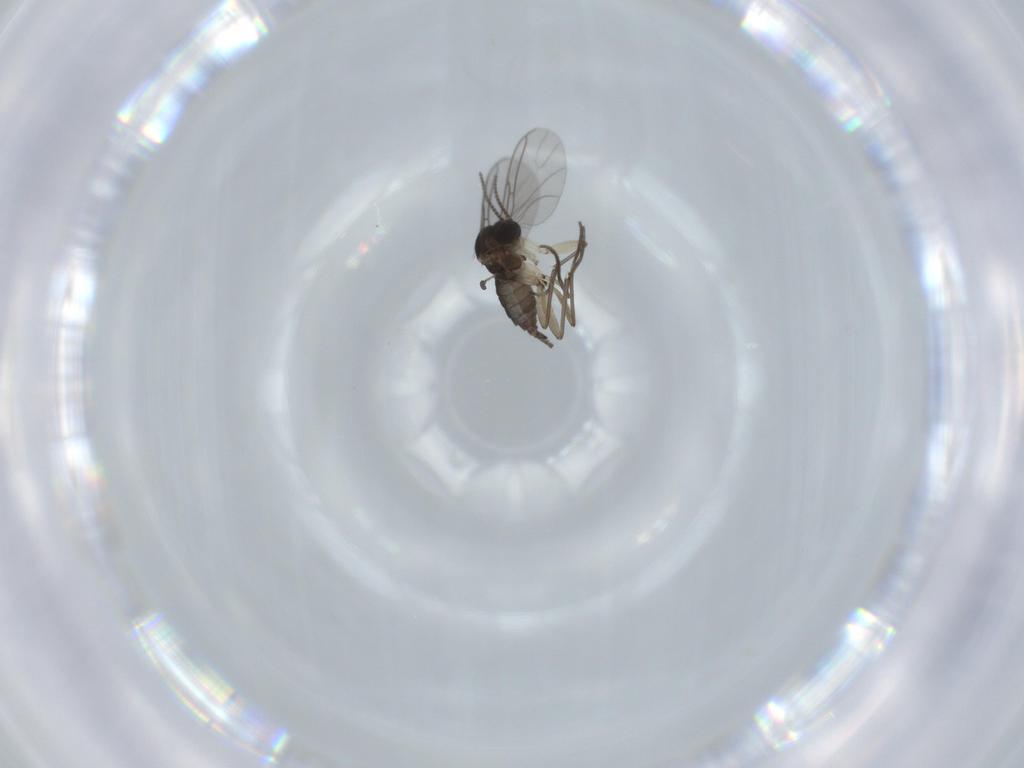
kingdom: Animalia
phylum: Arthropoda
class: Insecta
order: Diptera
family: Sciaridae
